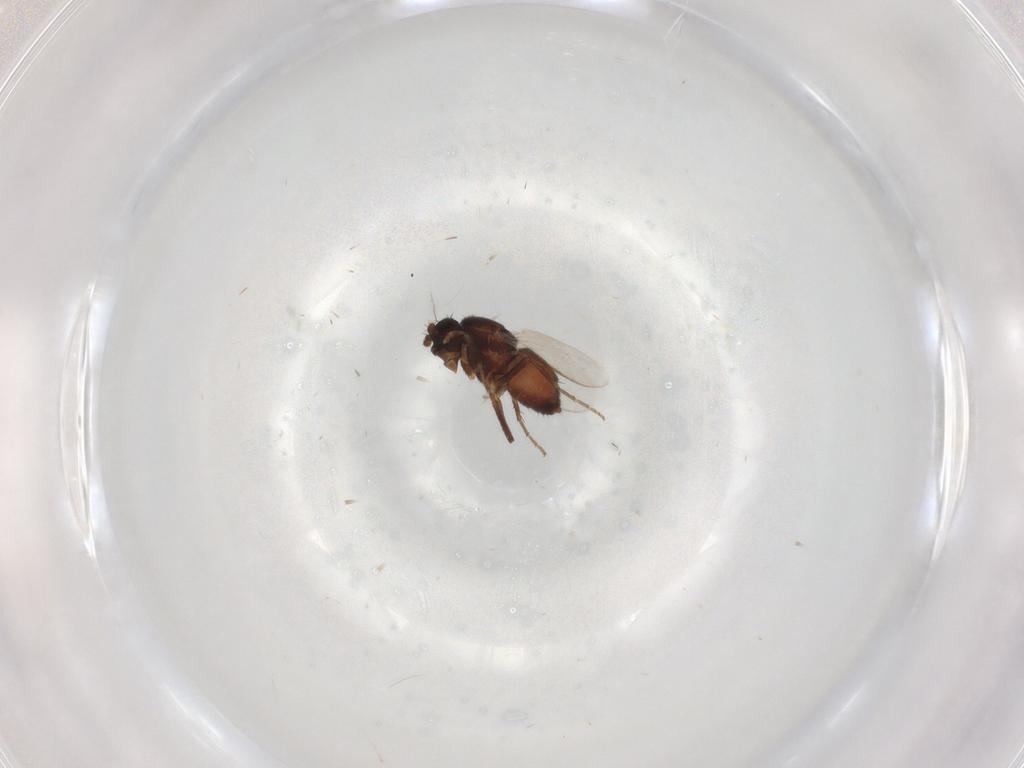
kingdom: Animalia
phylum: Arthropoda
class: Insecta
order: Diptera
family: Sphaeroceridae
